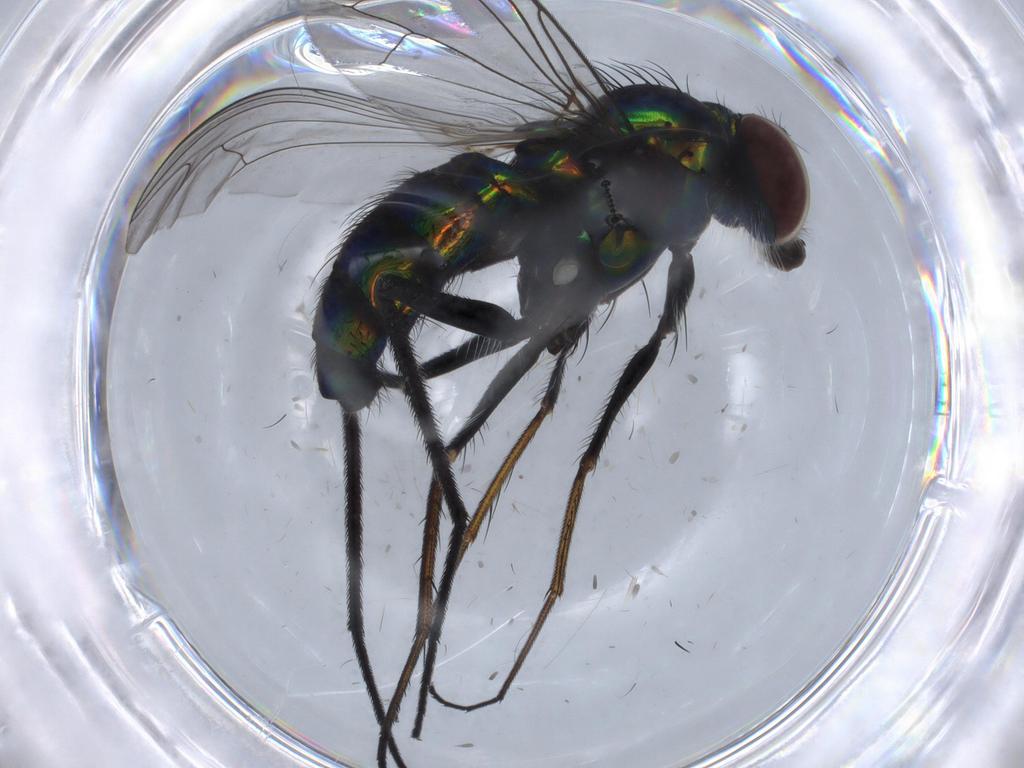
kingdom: Animalia
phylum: Arthropoda
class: Insecta
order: Diptera
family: Dolichopodidae
